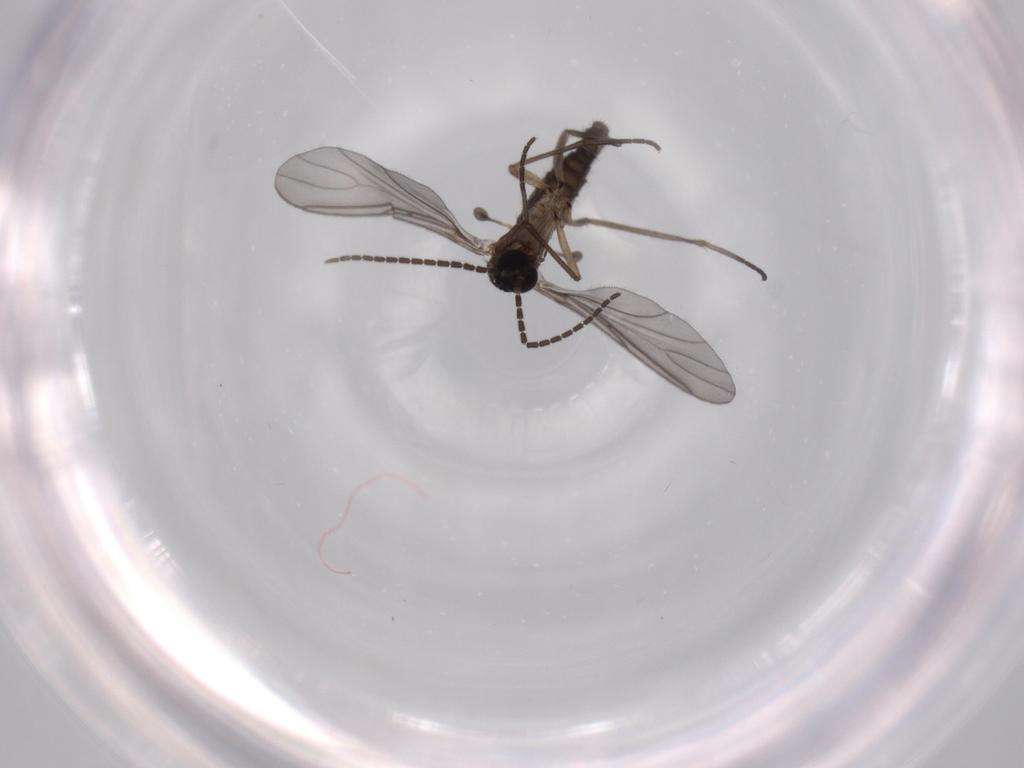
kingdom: Animalia
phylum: Arthropoda
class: Insecta
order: Diptera
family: Sciaridae
